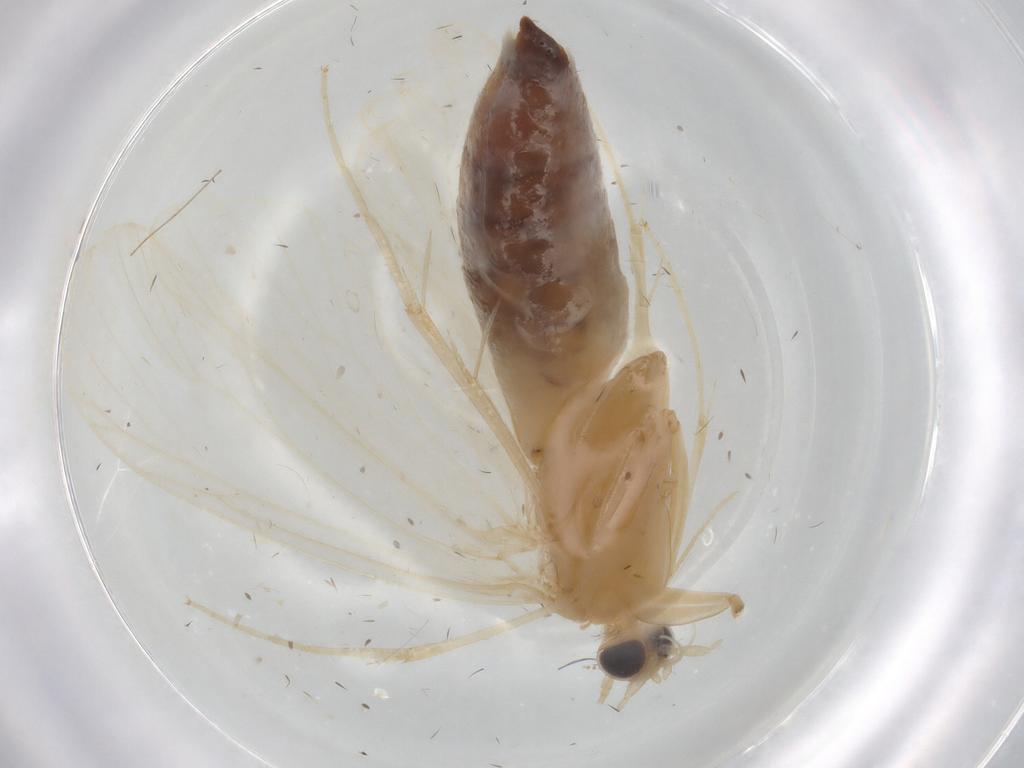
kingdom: Animalia
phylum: Arthropoda
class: Insecta
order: Lepidoptera
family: Crambidae
